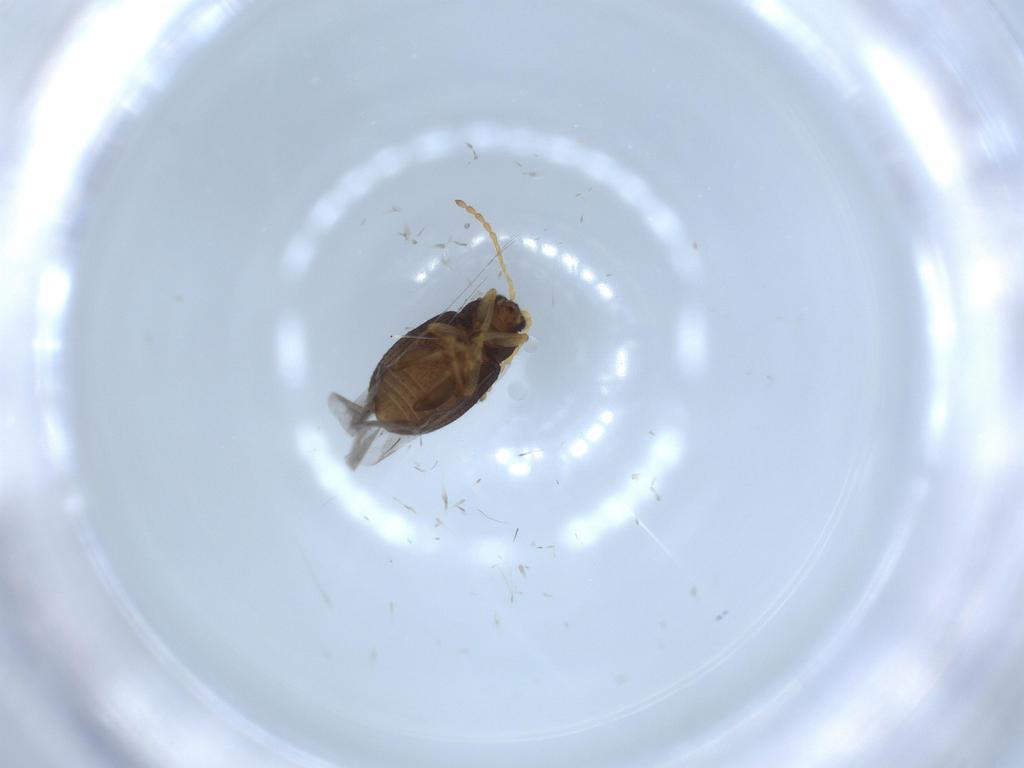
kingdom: Animalia
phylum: Arthropoda
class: Insecta
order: Coleoptera
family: Chrysomelidae
